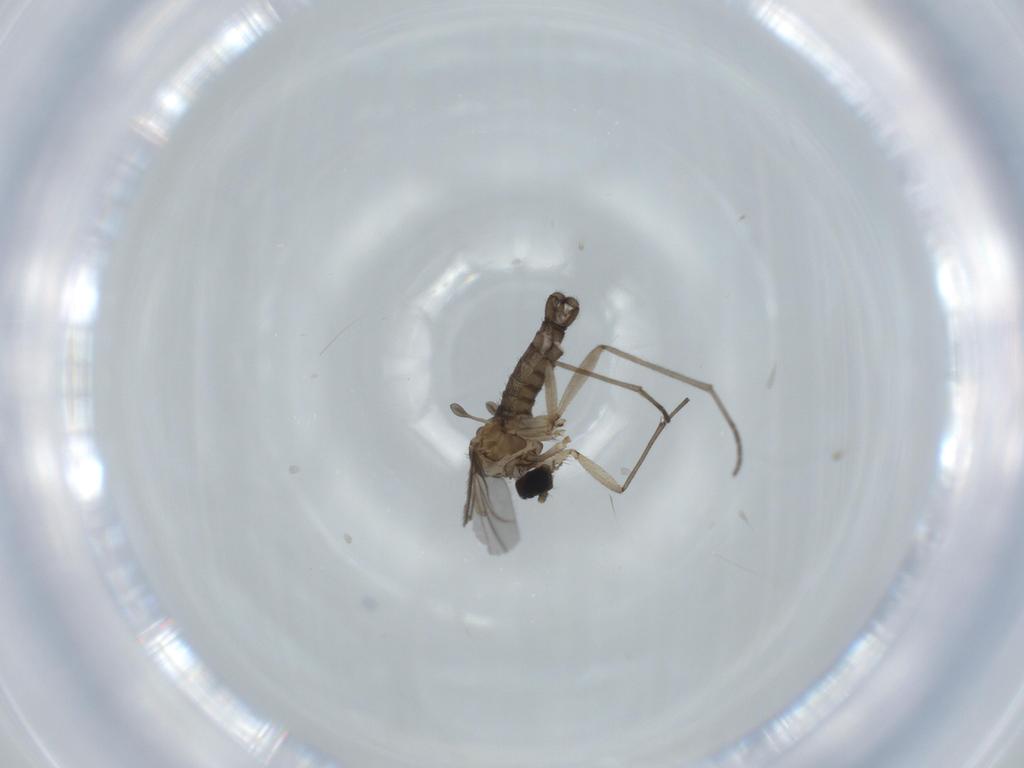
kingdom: Animalia
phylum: Arthropoda
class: Insecta
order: Diptera
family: Sciaridae
